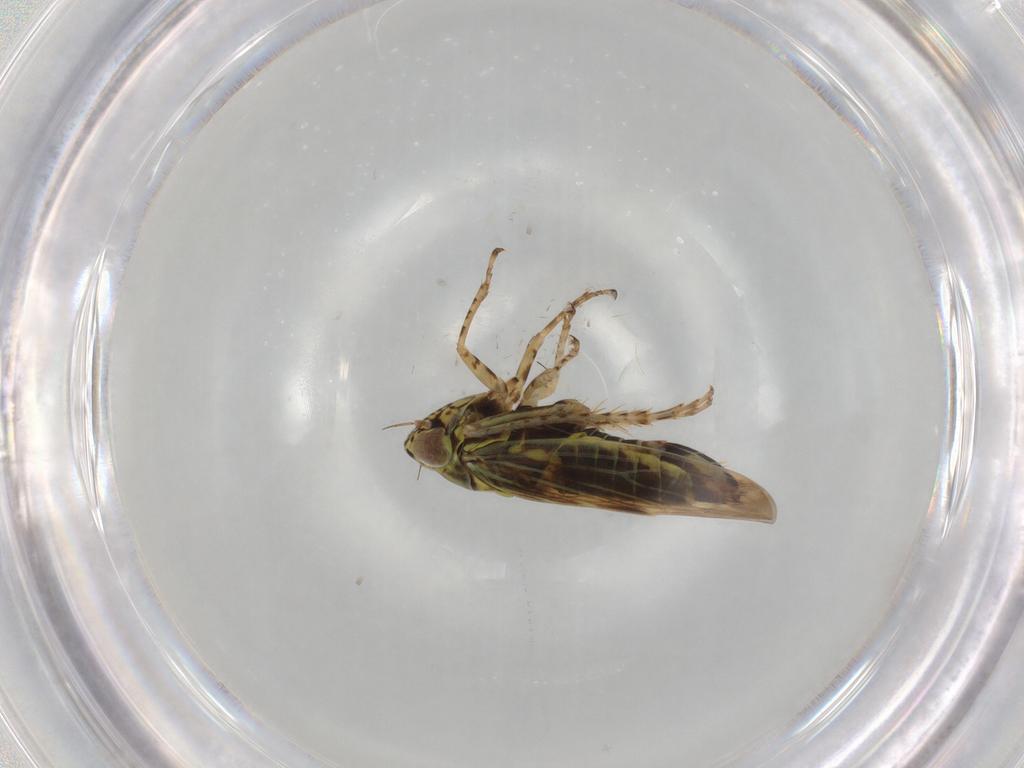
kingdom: Animalia
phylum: Arthropoda
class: Insecta
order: Hemiptera
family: Cicadellidae
